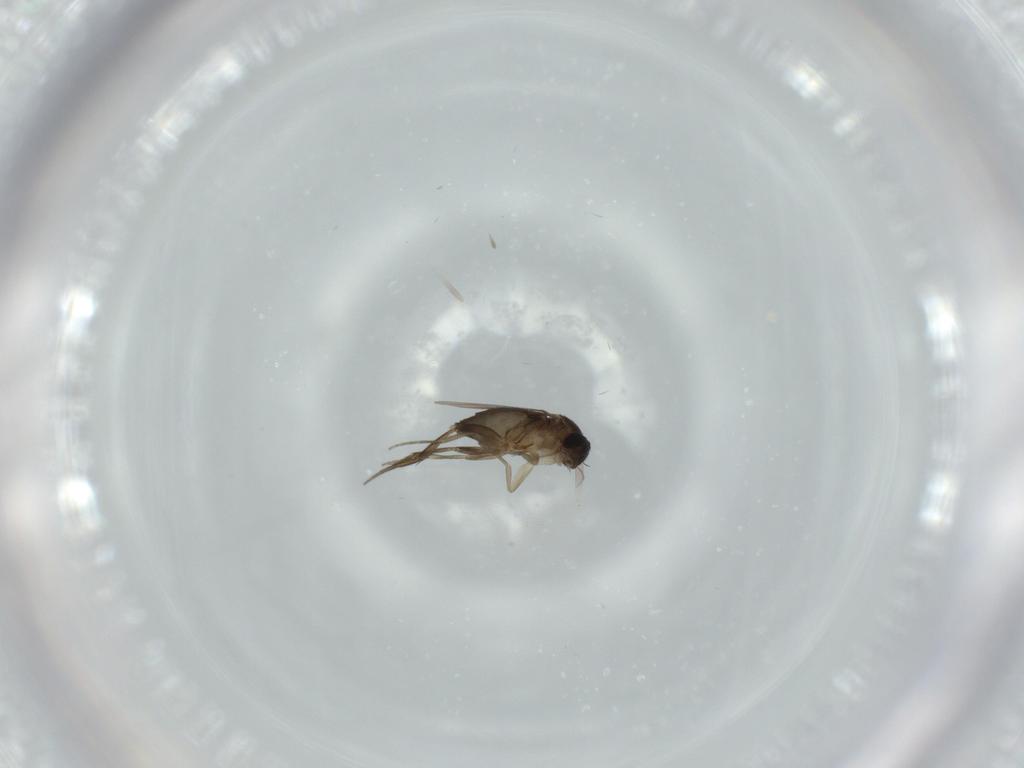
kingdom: Animalia
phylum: Arthropoda
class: Insecta
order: Diptera
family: Phoridae
